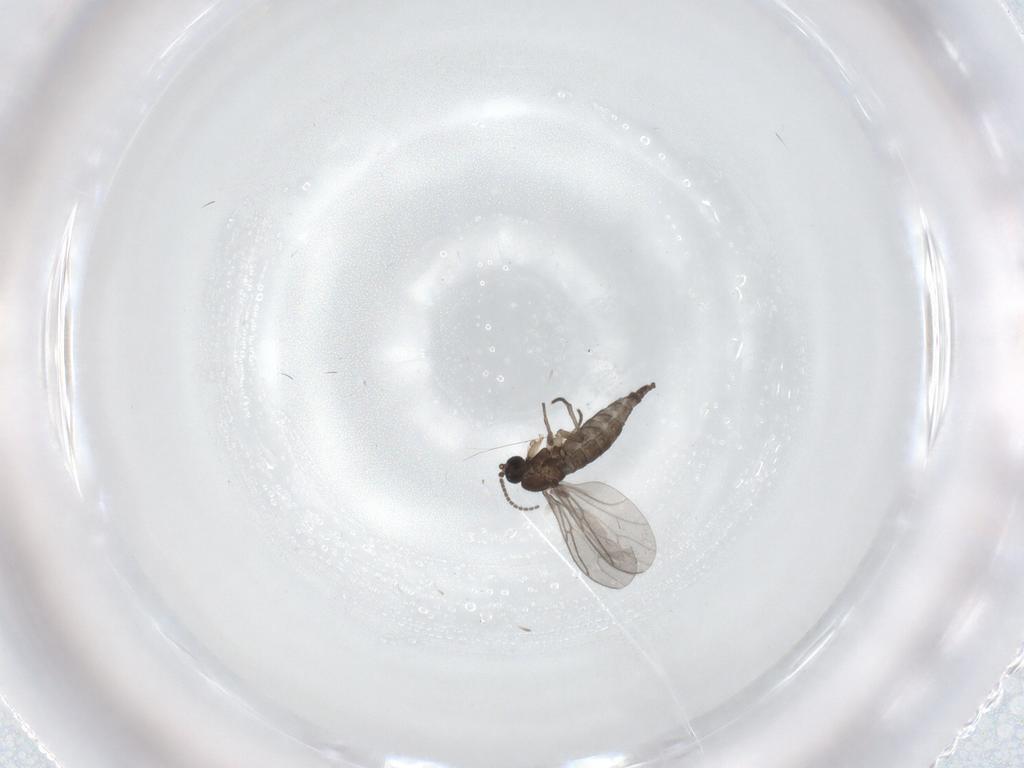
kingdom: Animalia
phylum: Arthropoda
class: Insecta
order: Diptera
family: Sciaridae
